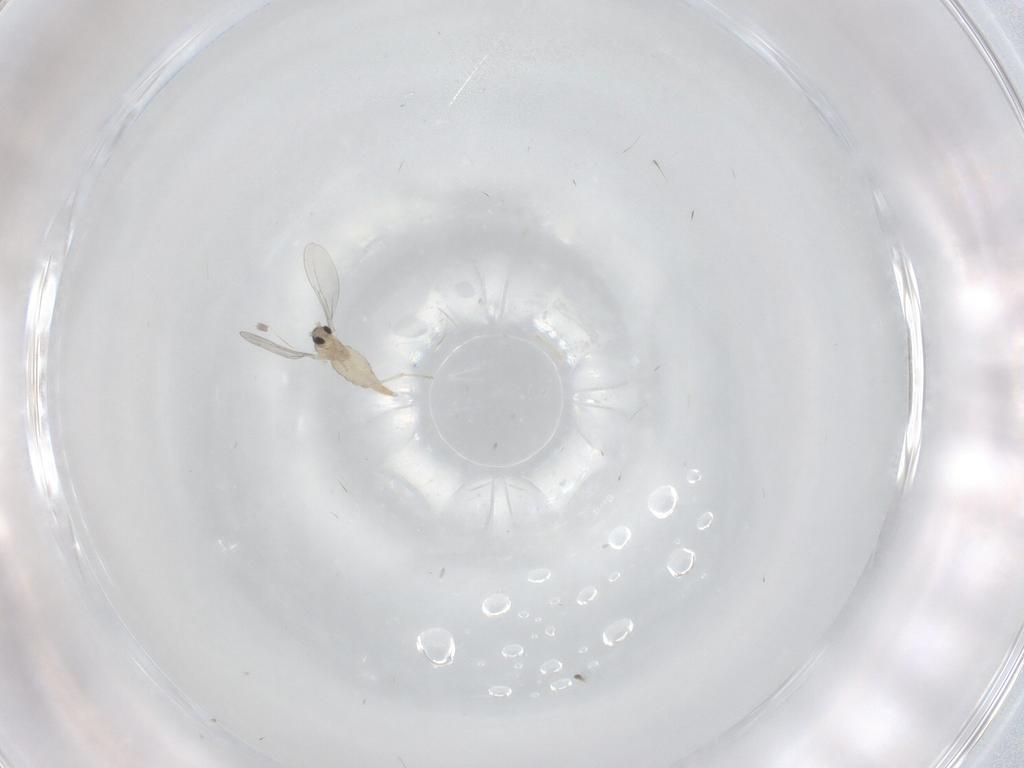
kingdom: Animalia
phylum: Arthropoda
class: Insecta
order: Diptera
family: Cecidomyiidae
